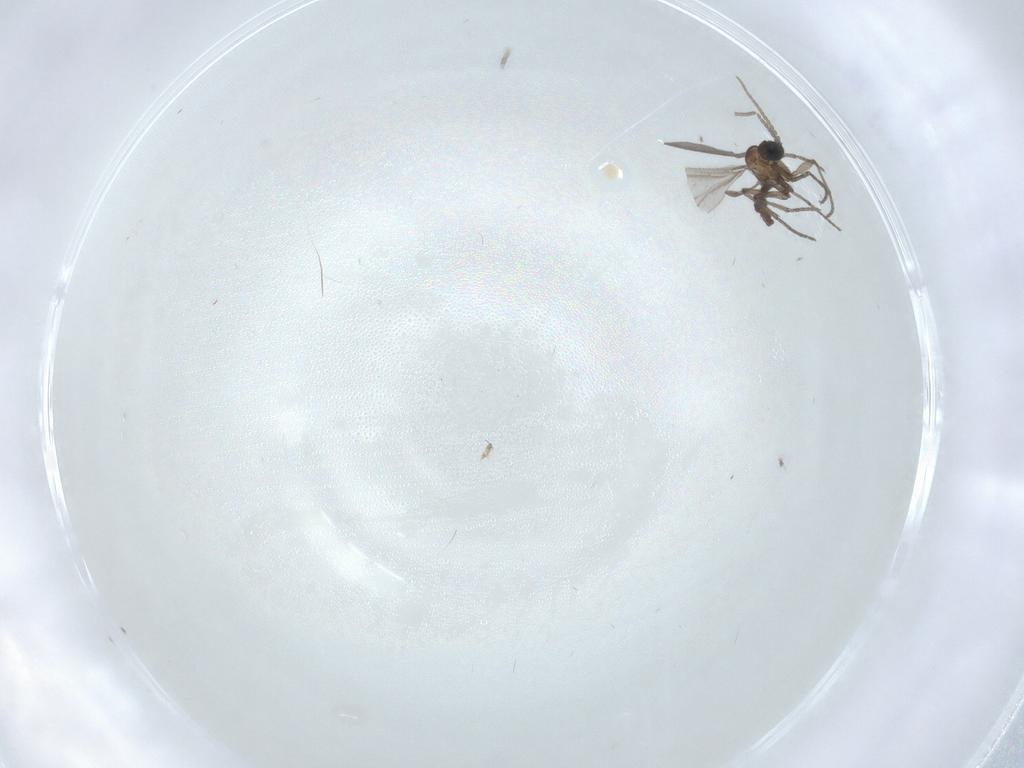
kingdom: Animalia
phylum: Arthropoda
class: Insecta
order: Diptera
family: Sciaridae
